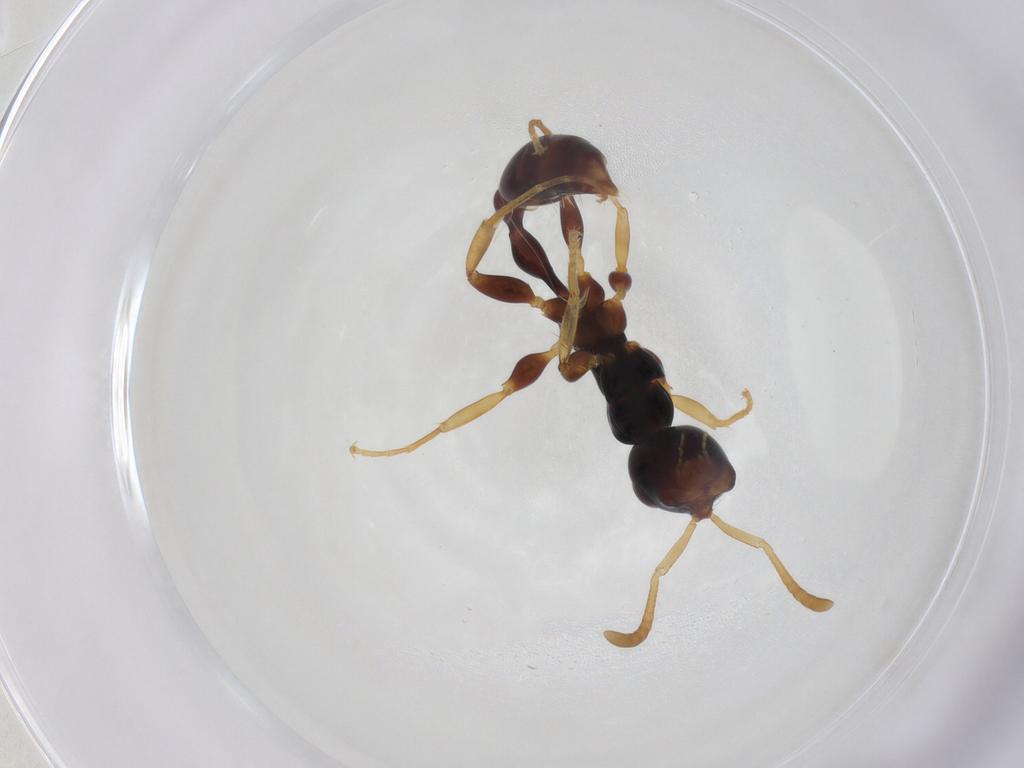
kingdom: Animalia
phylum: Arthropoda
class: Insecta
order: Hymenoptera
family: Formicidae
